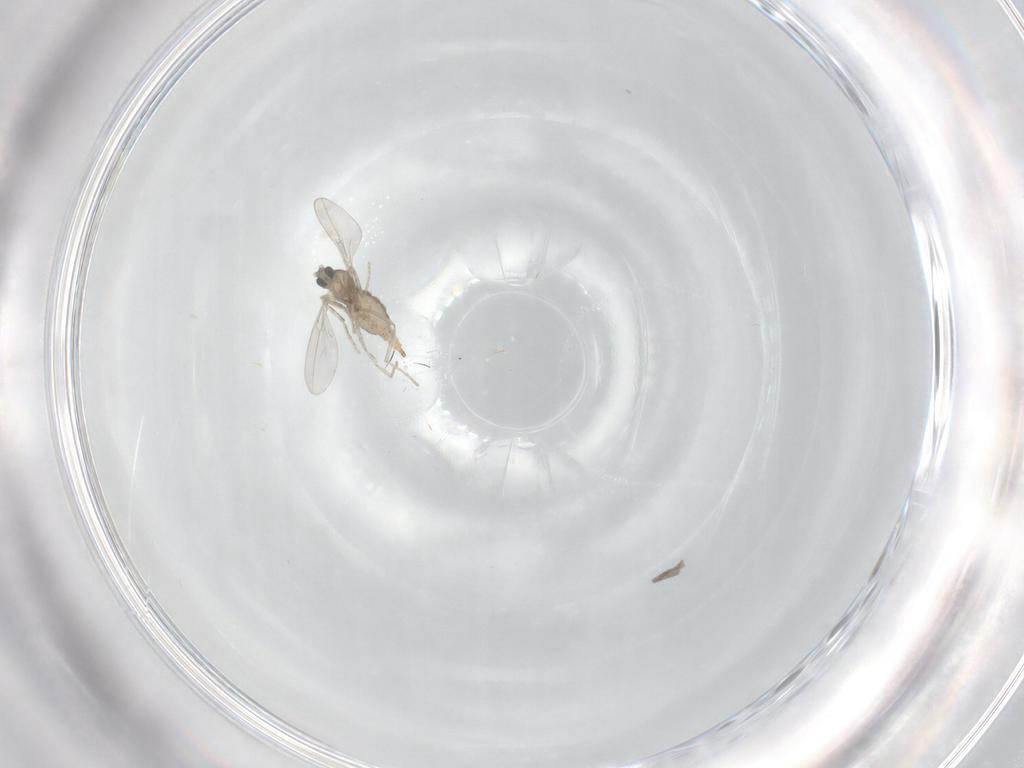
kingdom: Animalia
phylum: Arthropoda
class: Insecta
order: Diptera
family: Cecidomyiidae
